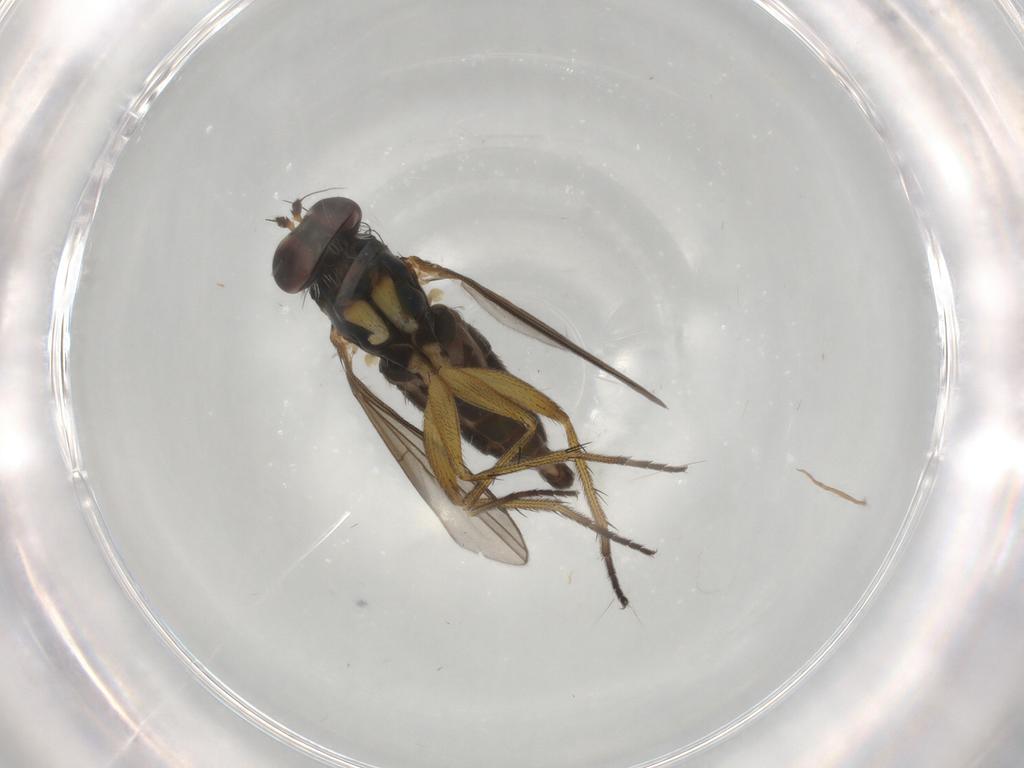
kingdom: Animalia
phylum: Arthropoda
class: Insecta
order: Diptera
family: Dolichopodidae
